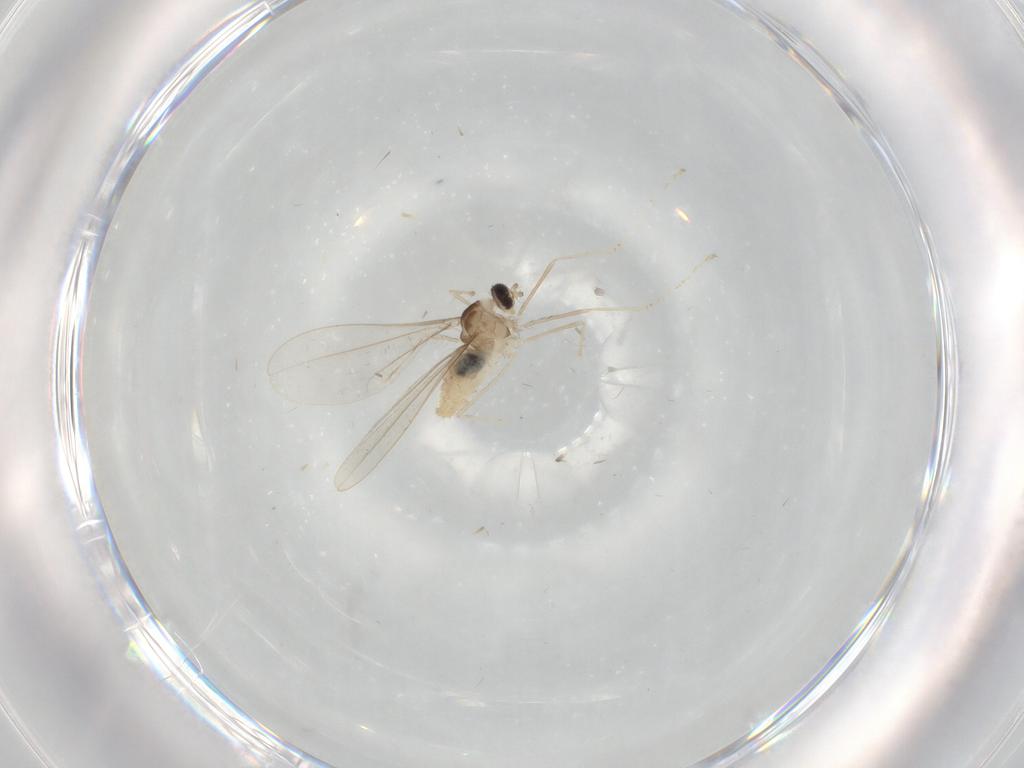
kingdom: Animalia
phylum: Arthropoda
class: Insecta
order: Diptera
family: Cecidomyiidae
